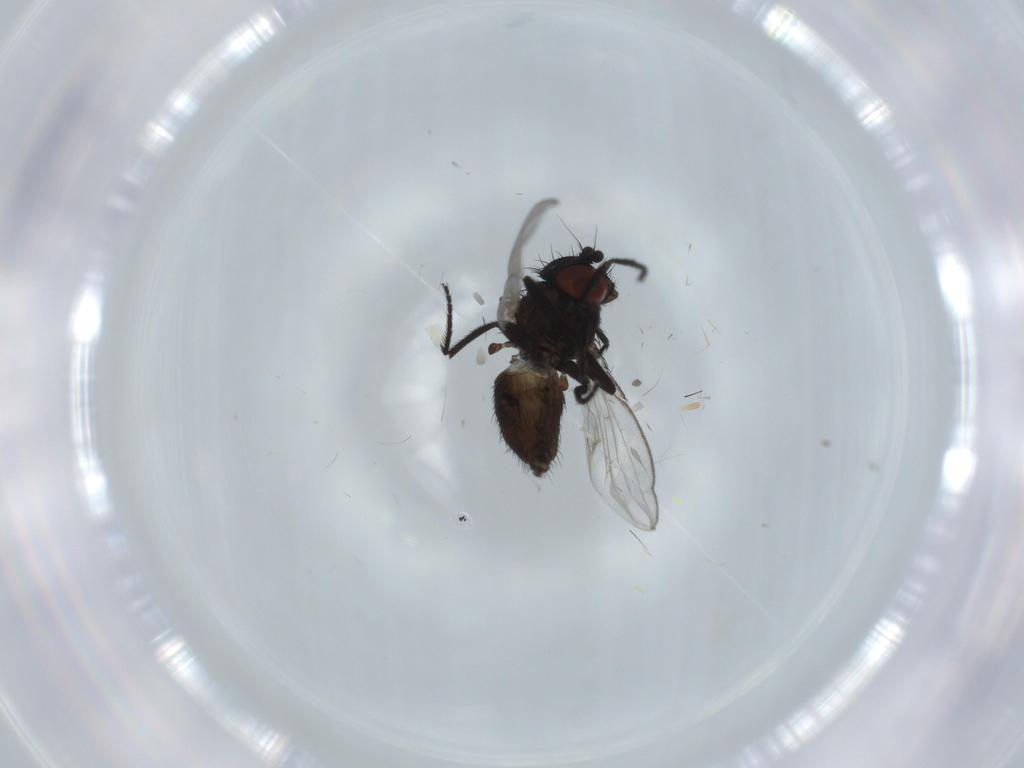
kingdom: Animalia
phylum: Arthropoda
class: Insecta
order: Diptera
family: Milichiidae
